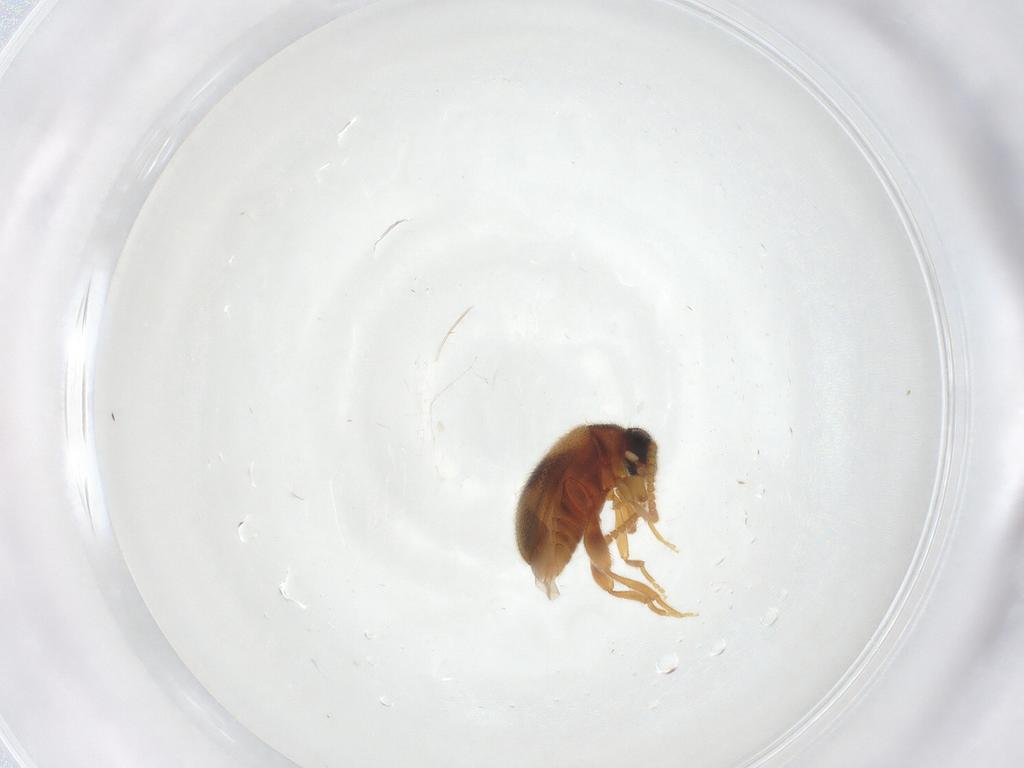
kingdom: Animalia
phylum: Arthropoda
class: Insecta
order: Coleoptera
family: Aderidae
